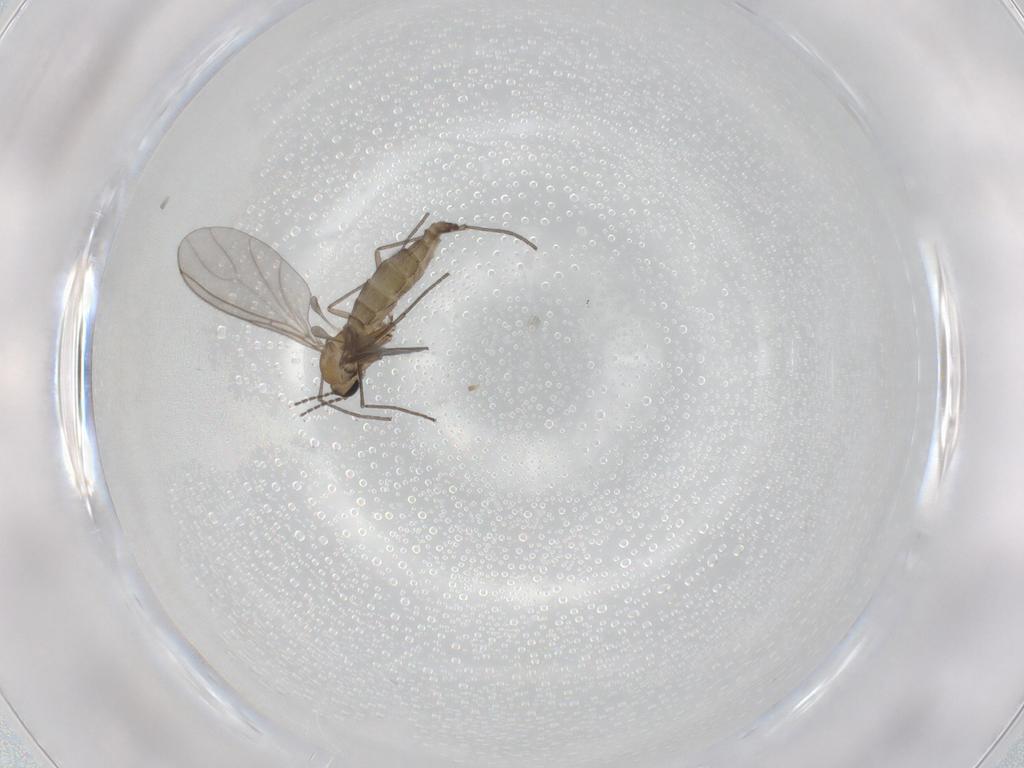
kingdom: Animalia
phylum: Arthropoda
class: Insecta
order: Diptera
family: Sciaridae
